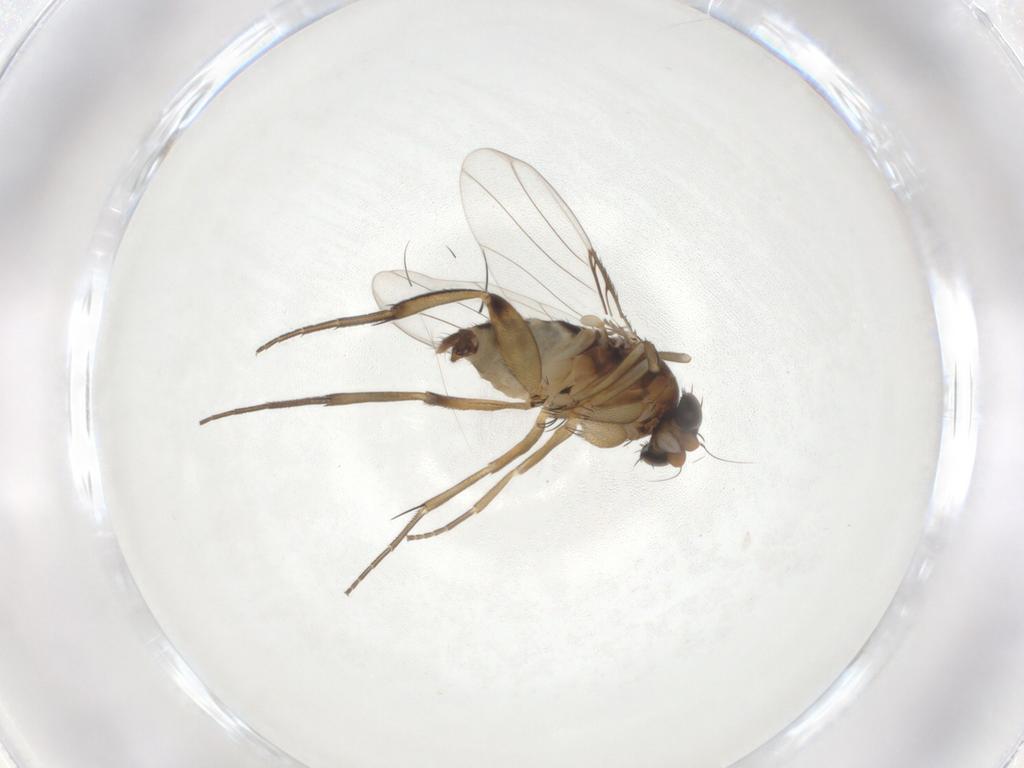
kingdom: Animalia
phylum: Arthropoda
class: Insecta
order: Diptera
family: Phoridae
